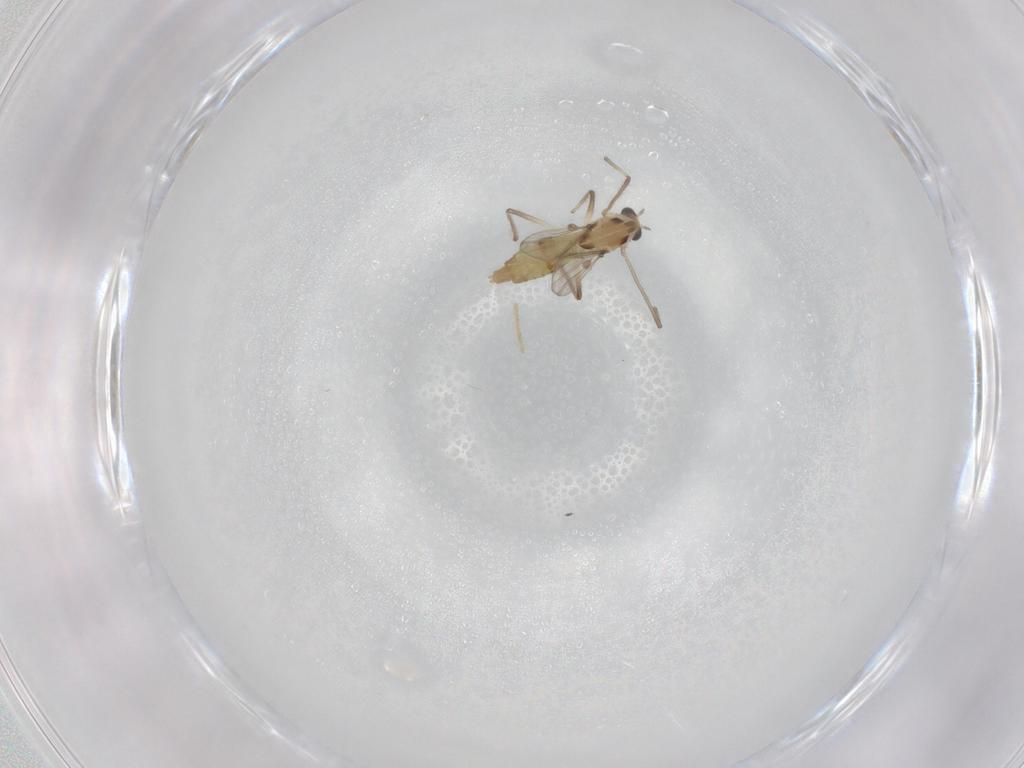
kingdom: Animalia
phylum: Arthropoda
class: Insecta
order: Diptera
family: Chironomidae
